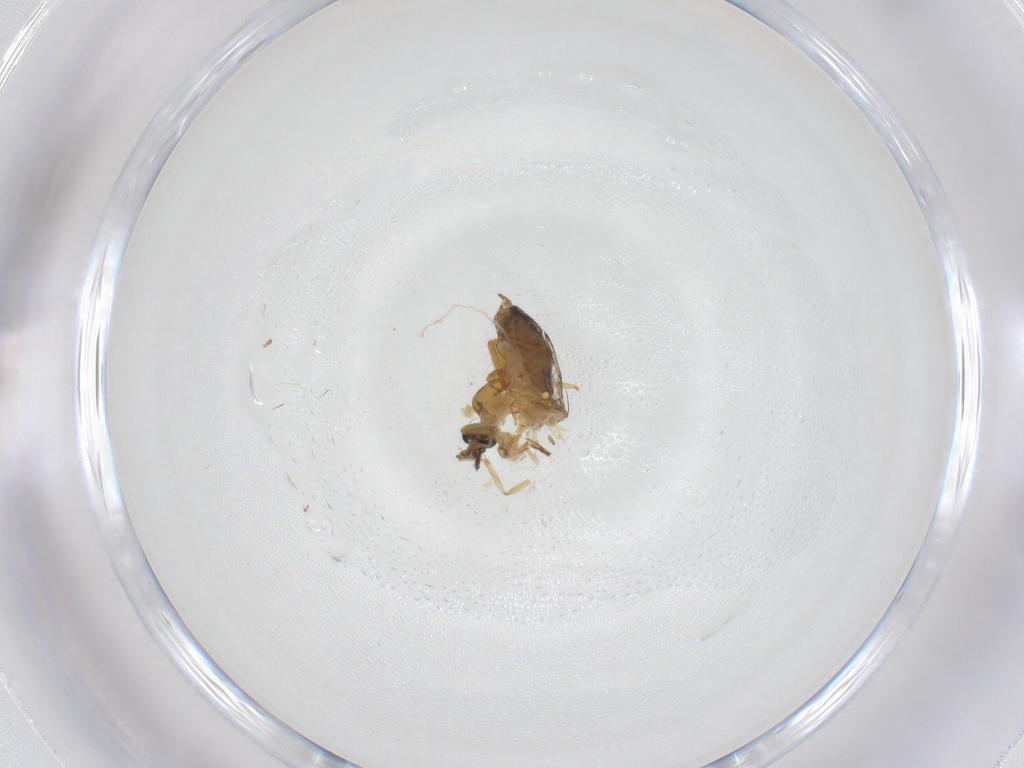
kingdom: Animalia
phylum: Arthropoda
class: Insecta
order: Diptera
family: Ceratopogonidae
